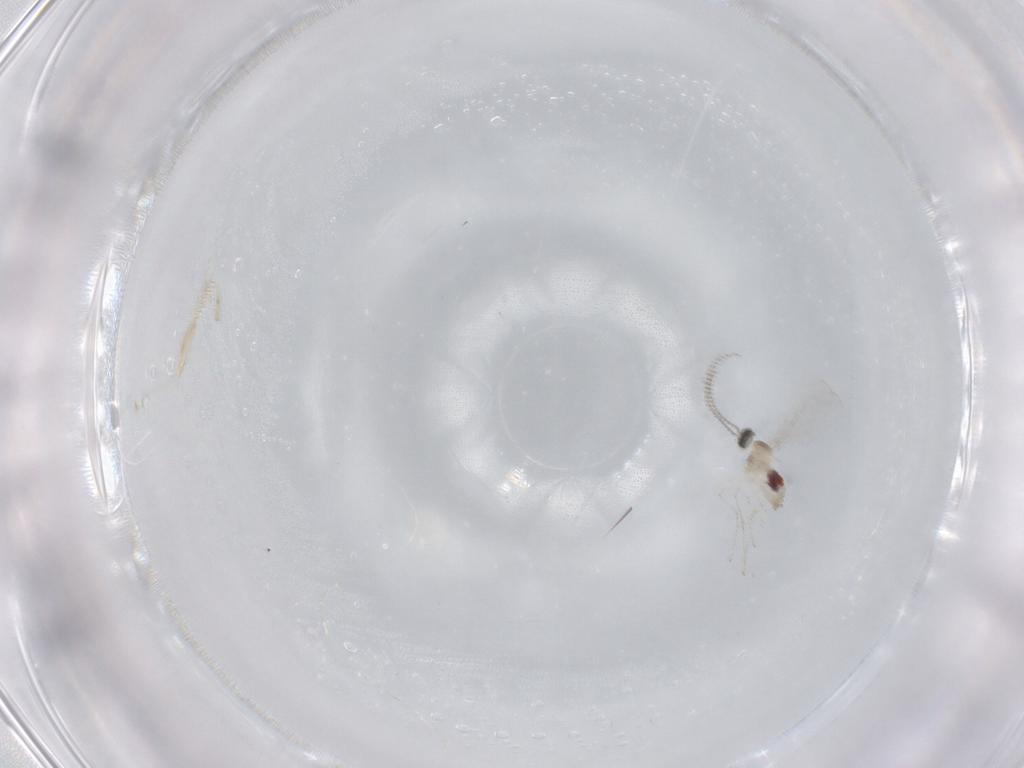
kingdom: Animalia
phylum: Arthropoda
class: Insecta
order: Diptera
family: Cecidomyiidae
